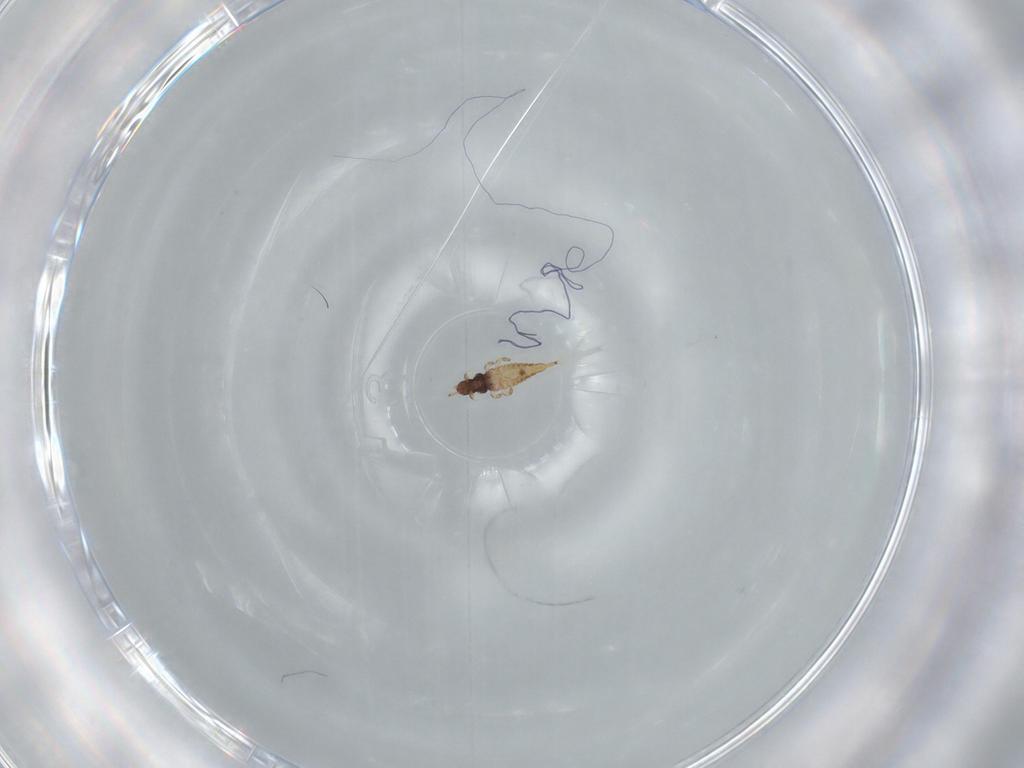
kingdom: Animalia
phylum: Arthropoda
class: Insecta
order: Thysanoptera
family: Phlaeothripidae
